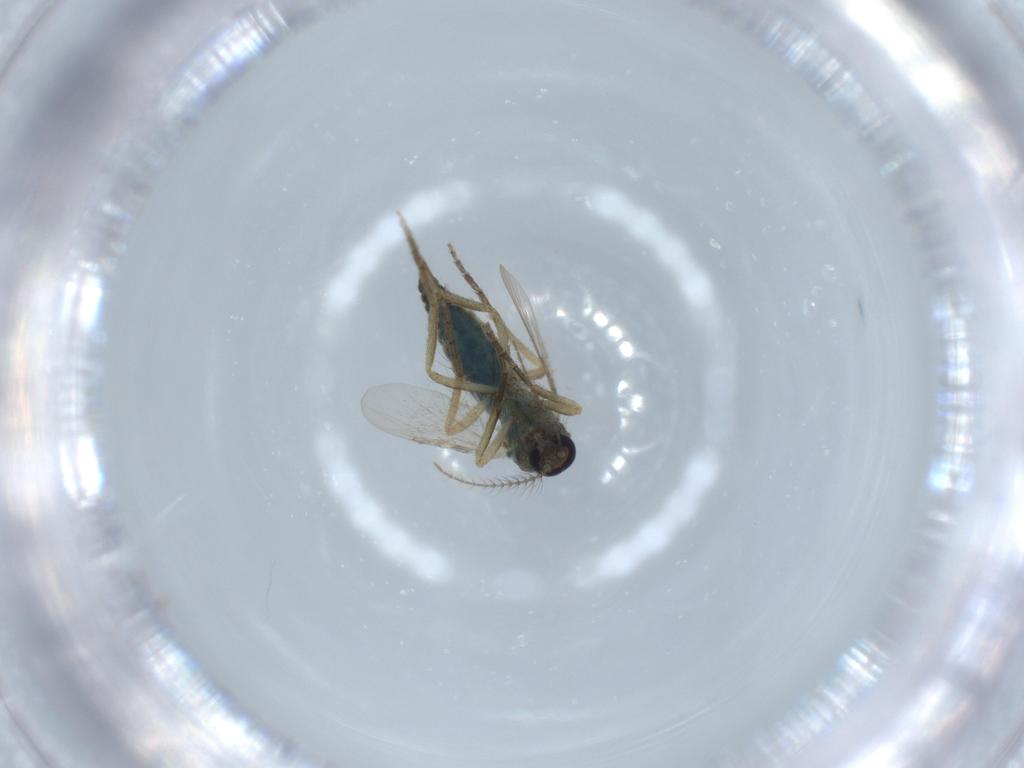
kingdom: Animalia
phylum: Arthropoda
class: Insecta
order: Diptera
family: Ceratopogonidae
